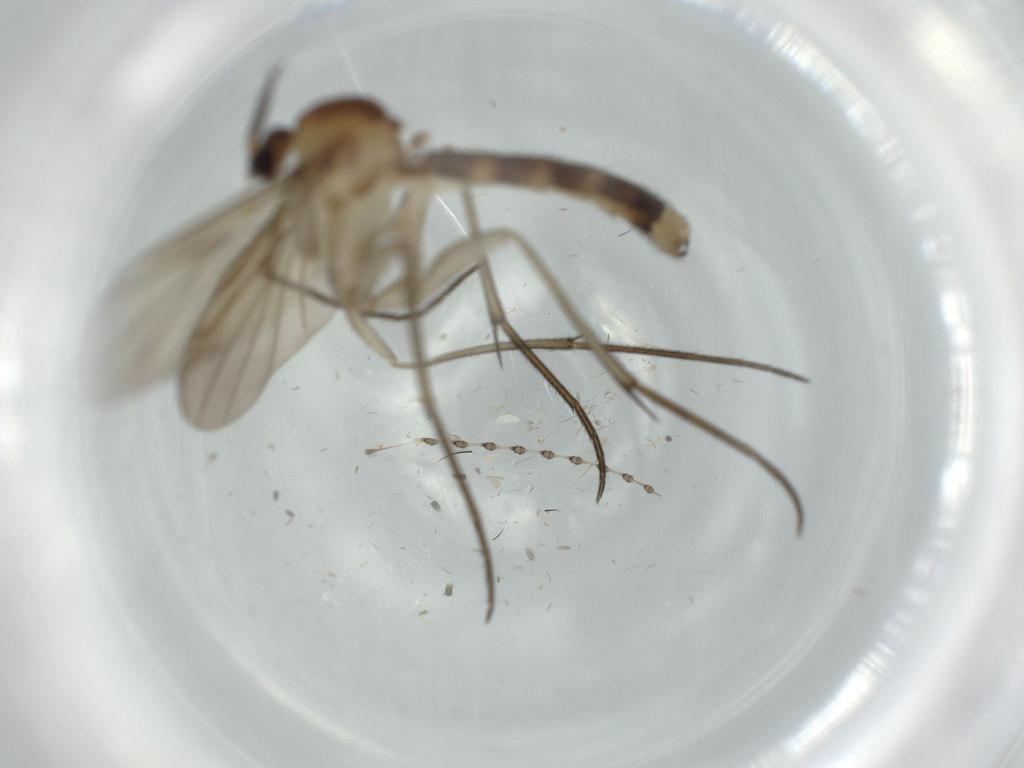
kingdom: Animalia
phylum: Arthropoda
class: Insecta
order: Diptera
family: Mycetophilidae
